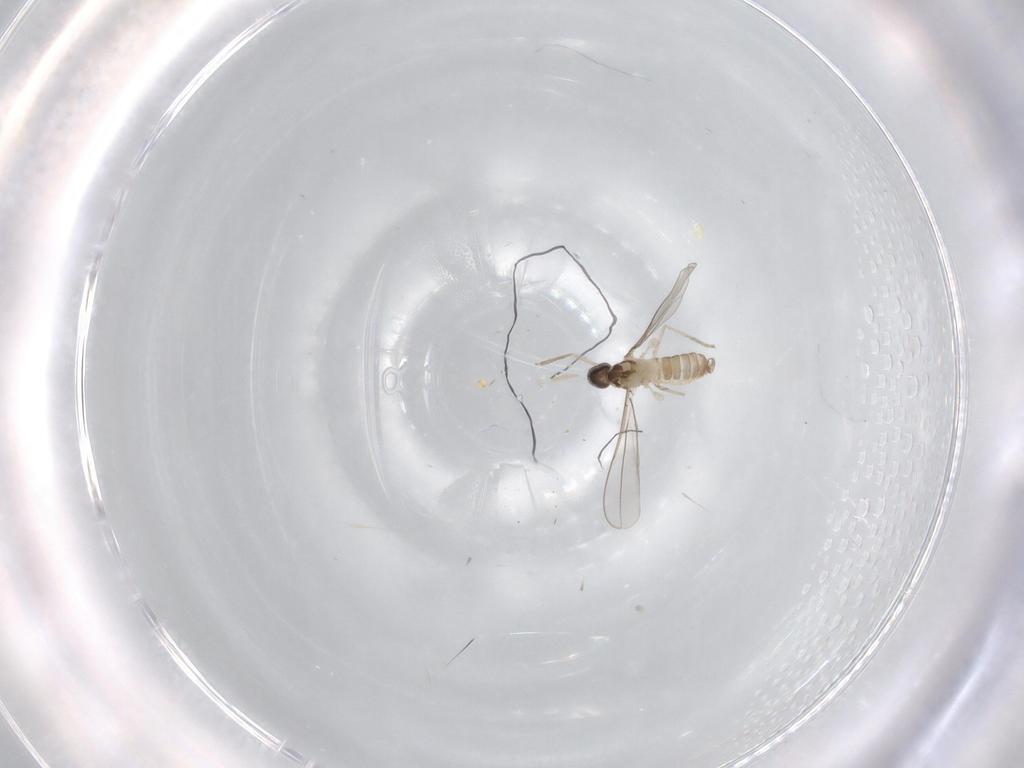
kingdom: Animalia
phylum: Arthropoda
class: Insecta
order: Diptera
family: Cecidomyiidae
